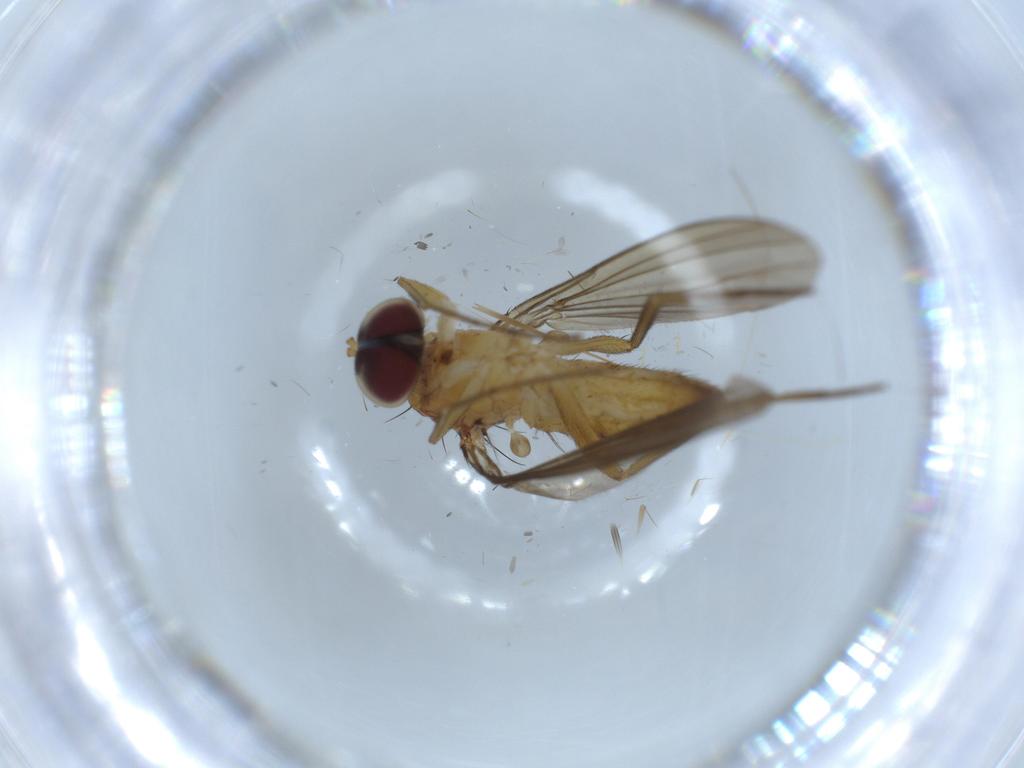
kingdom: Animalia
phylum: Arthropoda
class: Insecta
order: Diptera
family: Dolichopodidae
